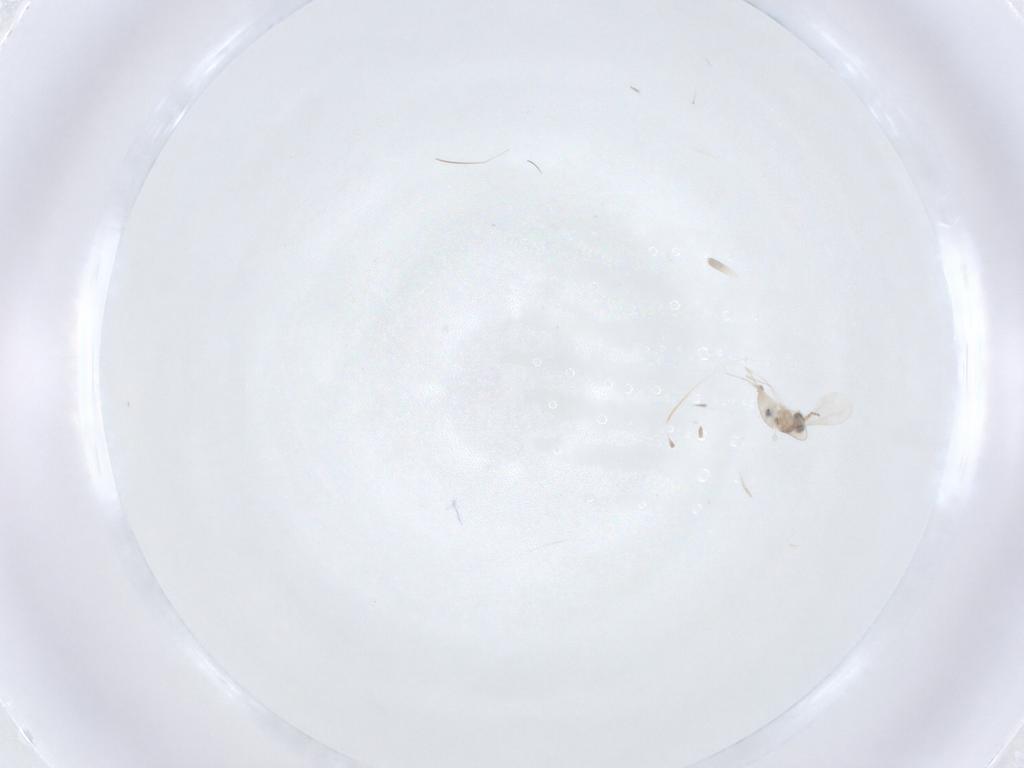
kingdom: Animalia
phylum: Arthropoda
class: Insecta
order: Diptera
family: Cecidomyiidae
